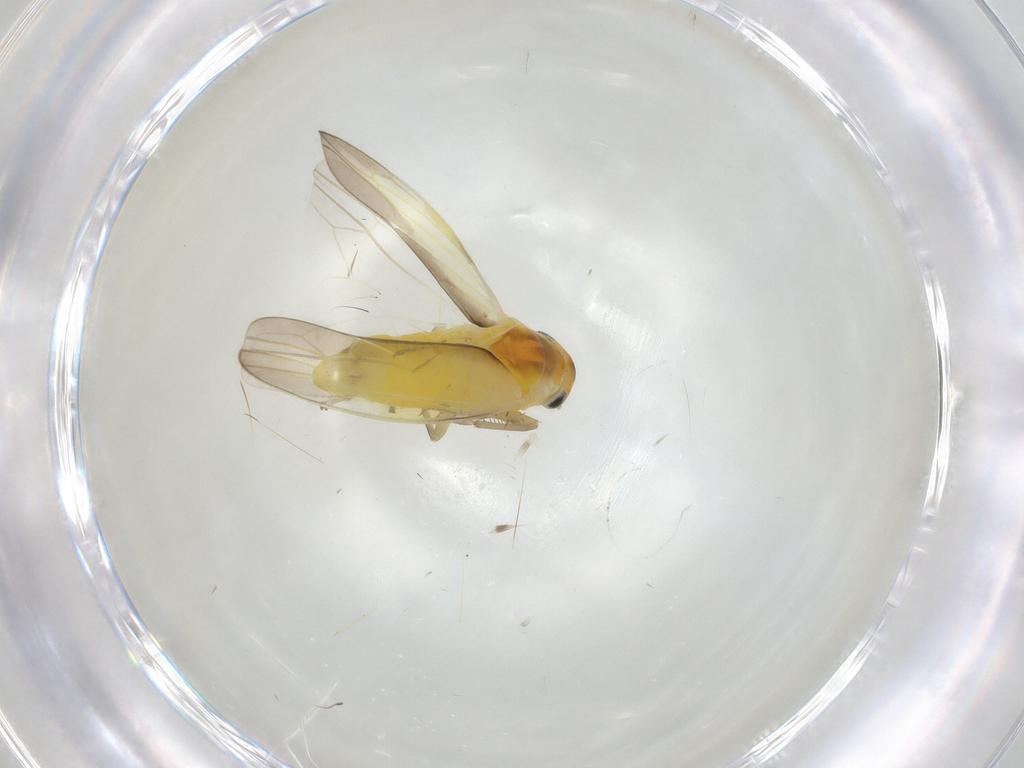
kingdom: Animalia
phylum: Arthropoda
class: Insecta
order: Hemiptera
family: Cicadellidae
